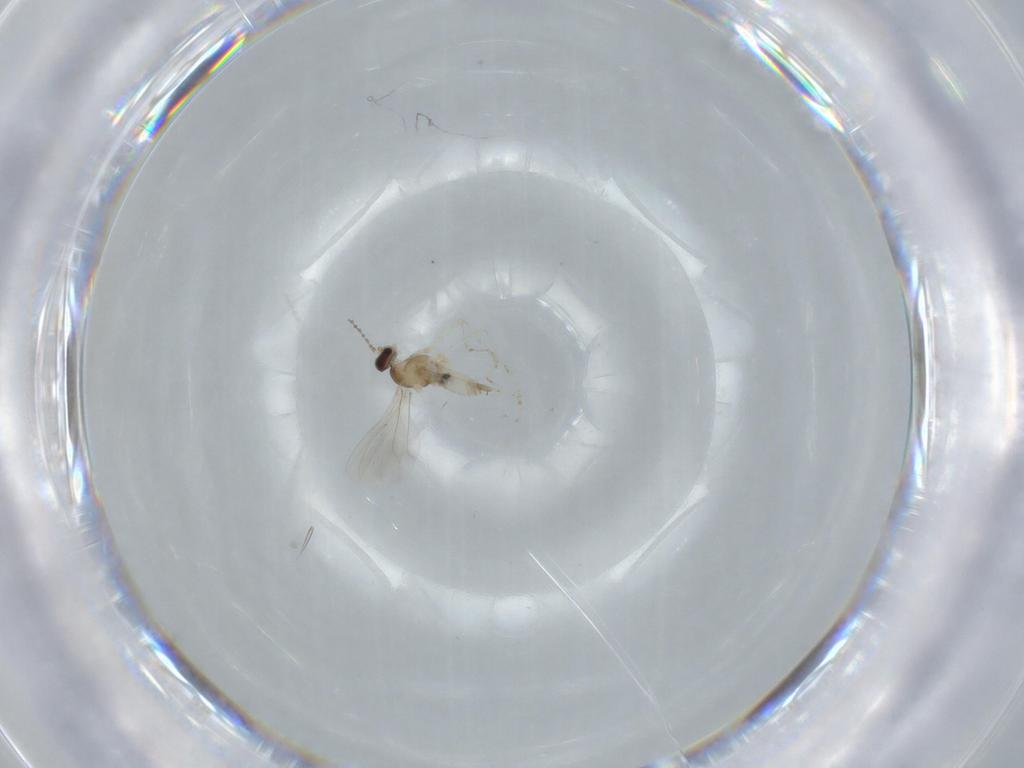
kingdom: Animalia
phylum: Arthropoda
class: Insecta
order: Diptera
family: Cecidomyiidae
